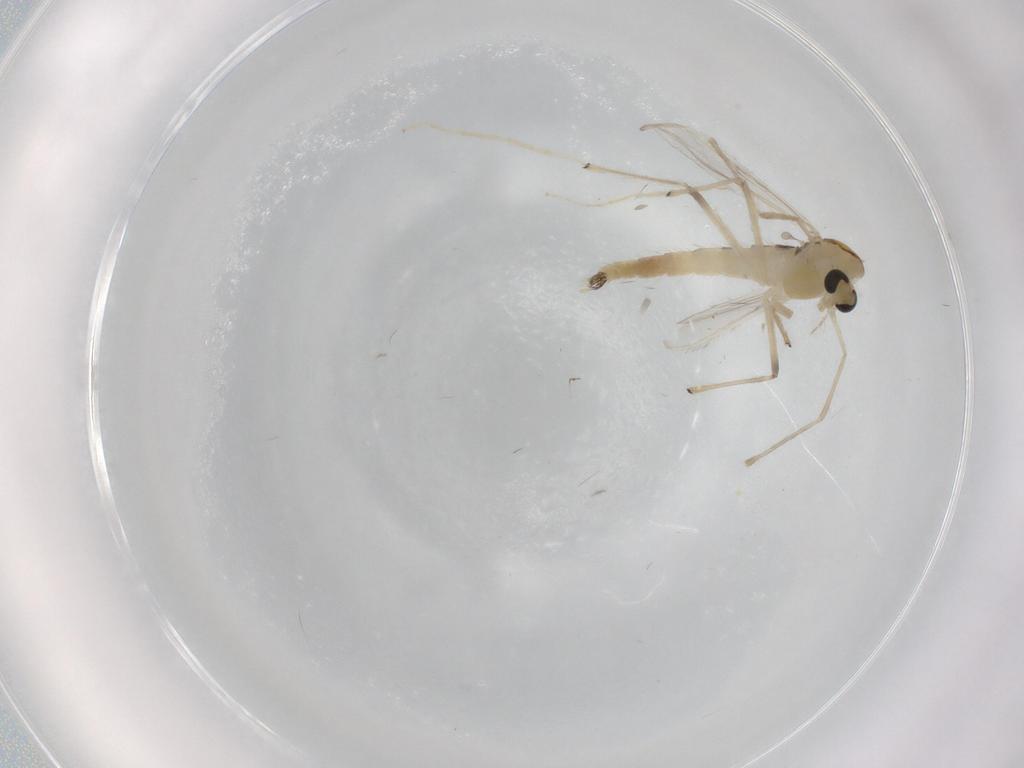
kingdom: Animalia
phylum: Arthropoda
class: Insecta
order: Diptera
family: Chironomidae
